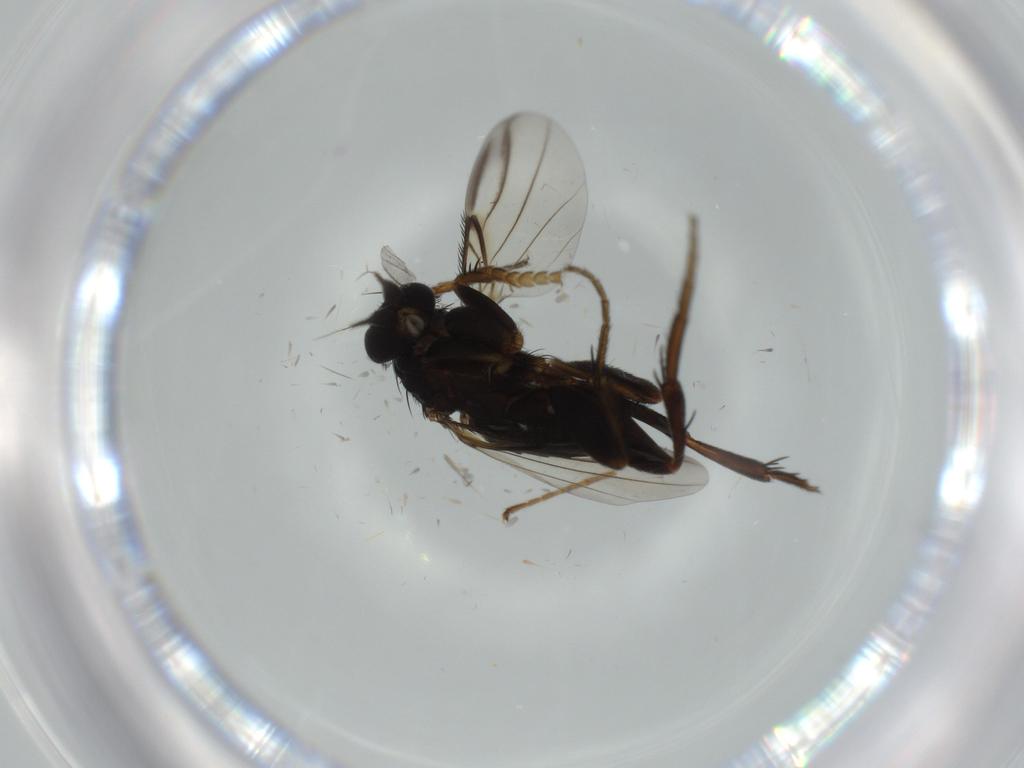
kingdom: Animalia
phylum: Arthropoda
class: Insecta
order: Diptera
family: Phoridae
